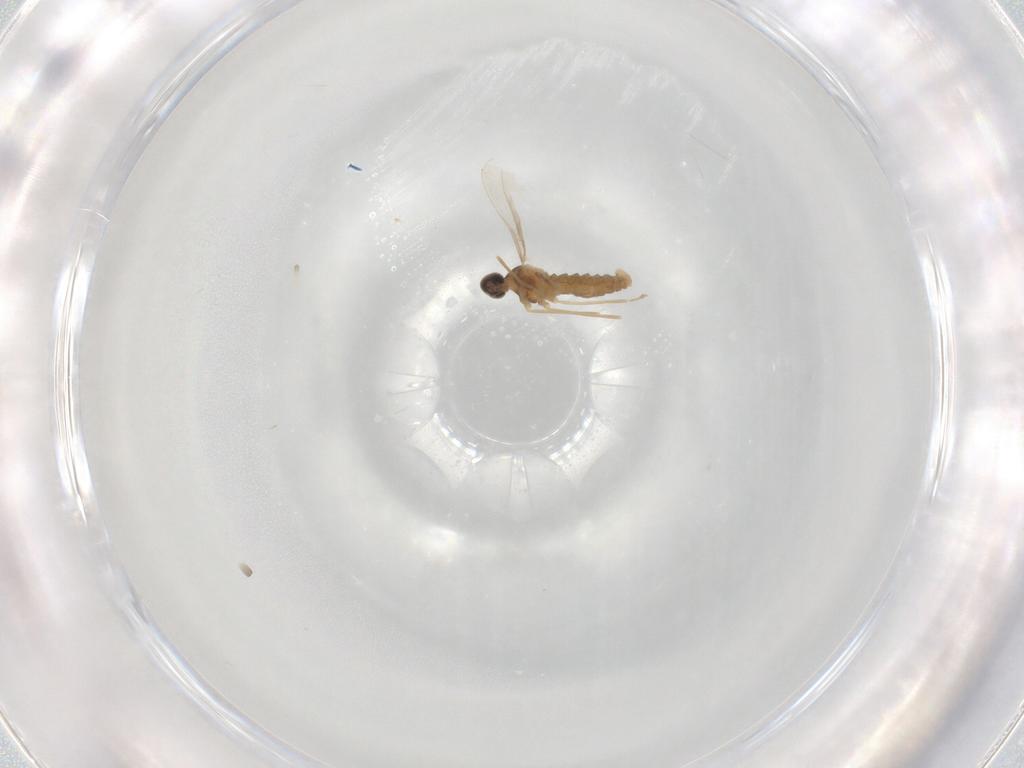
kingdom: Animalia
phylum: Arthropoda
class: Insecta
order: Diptera
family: Cecidomyiidae
